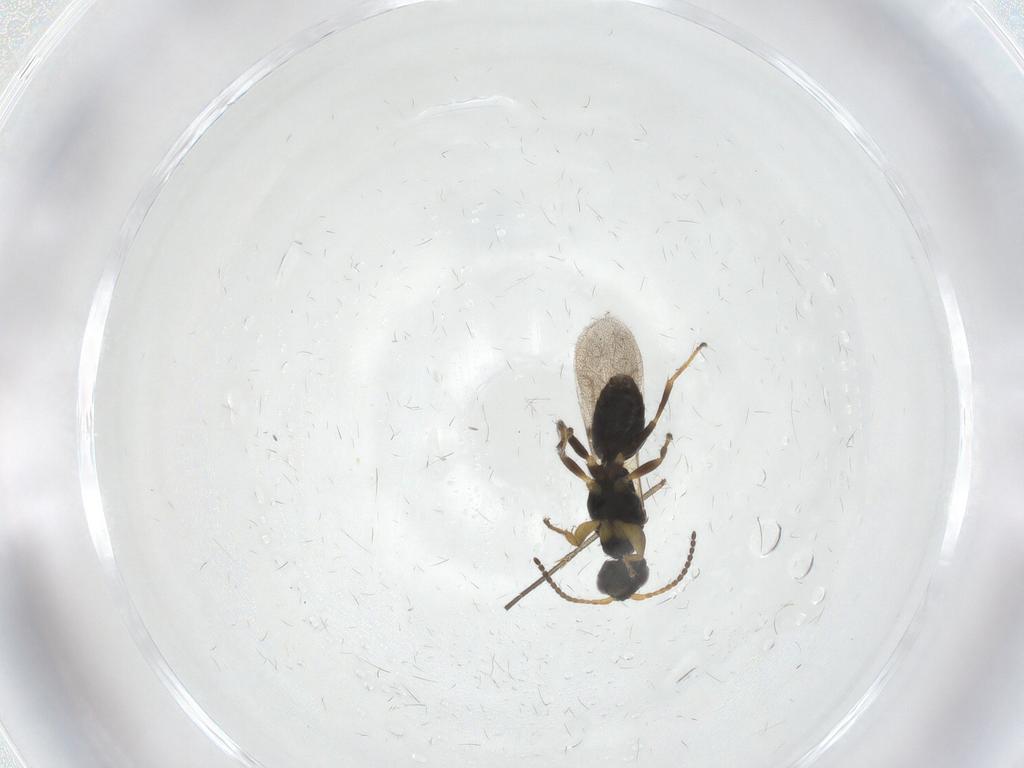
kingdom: Animalia
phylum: Arthropoda
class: Insecta
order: Hymenoptera
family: Bethylidae
